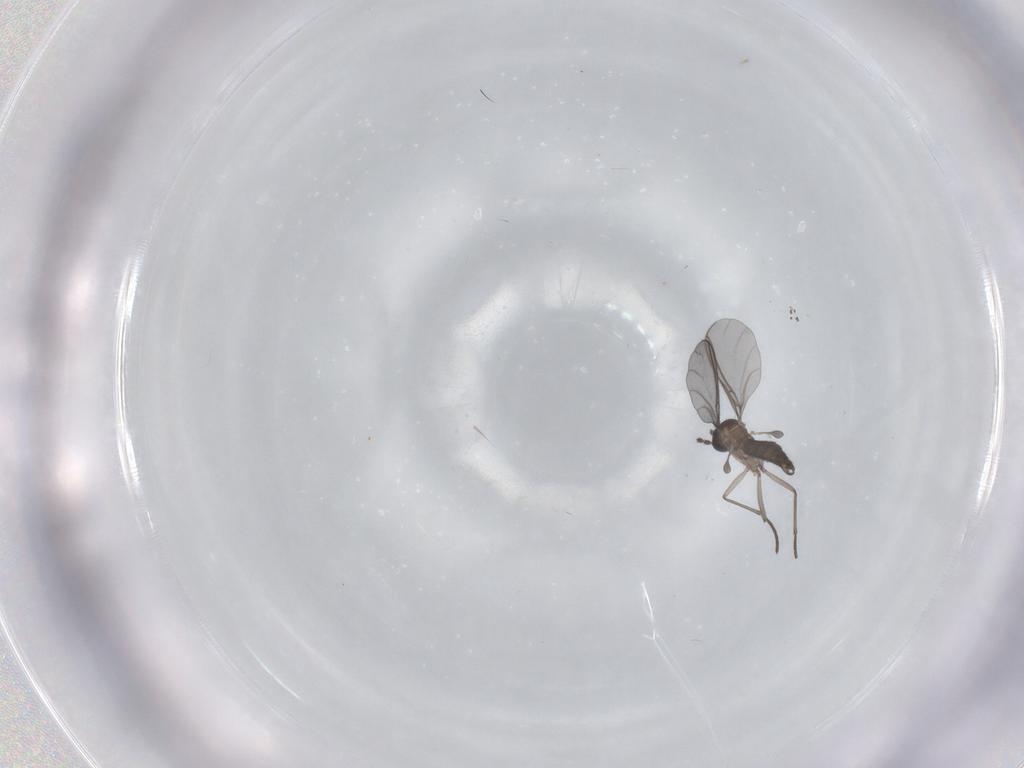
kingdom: Animalia
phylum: Arthropoda
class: Insecta
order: Diptera
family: Sciaridae
